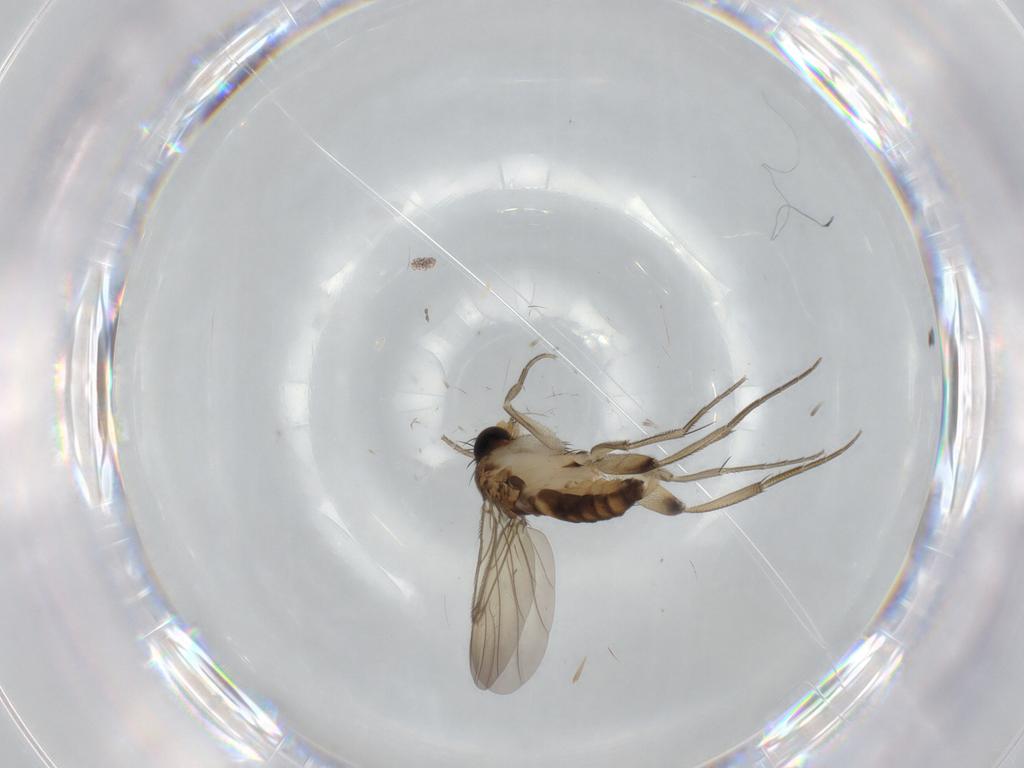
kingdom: Animalia
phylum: Arthropoda
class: Insecta
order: Diptera
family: Phoridae
